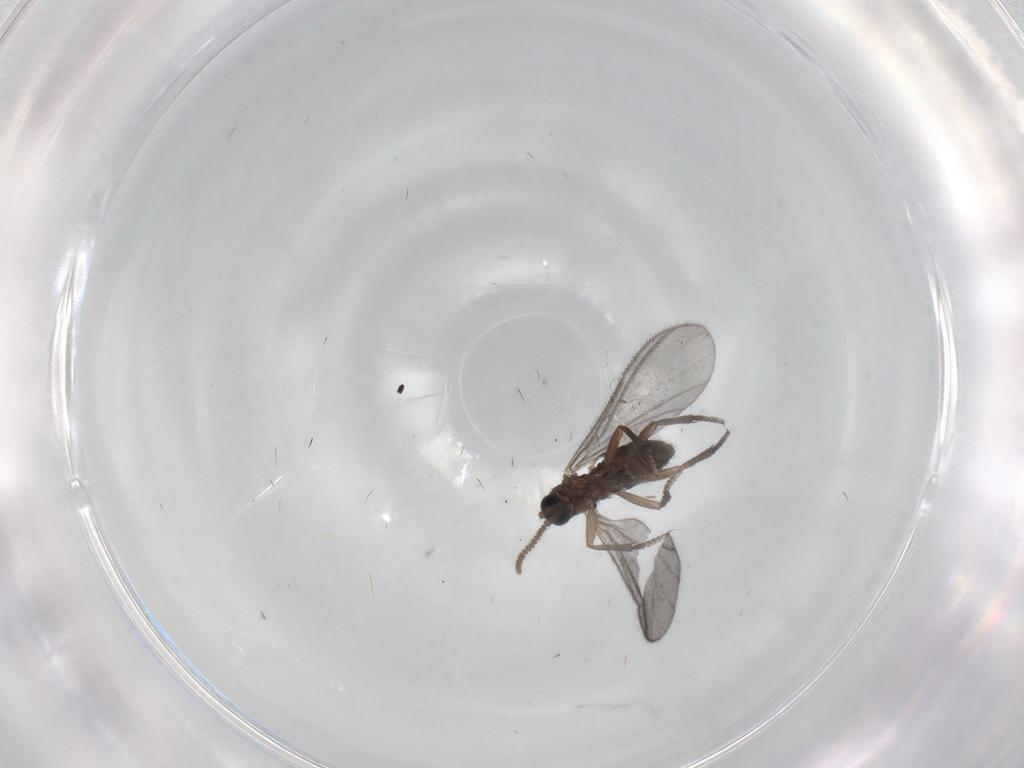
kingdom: Animalia
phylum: Arthropoda
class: Insecta
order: Diptera
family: Sciaridae
